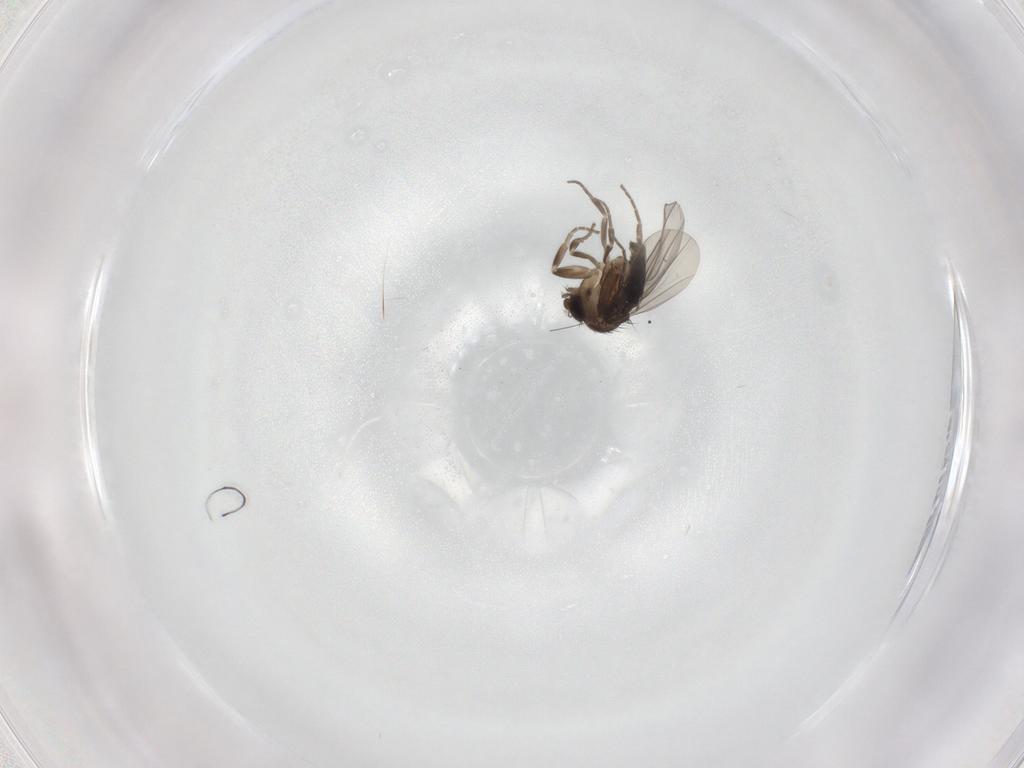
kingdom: Animalia
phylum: Arthropoda
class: Insecta
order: Diptera
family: Phoridae
